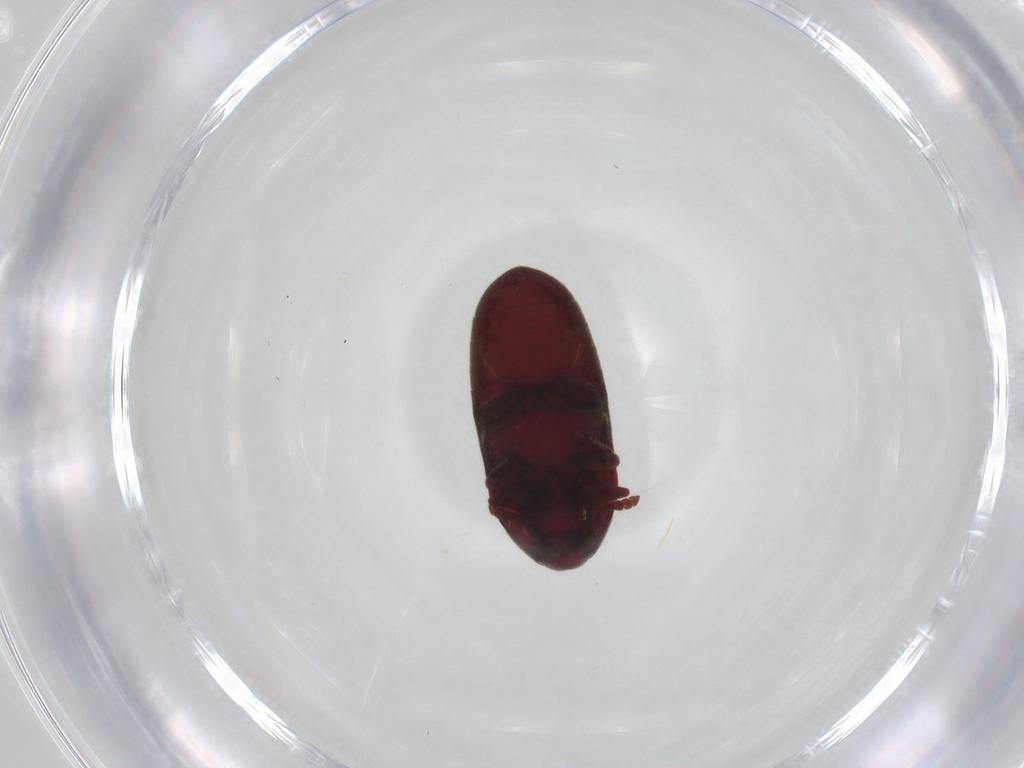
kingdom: Animalia
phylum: Arthropoda
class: Insecta
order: Coleoptera
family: Throscidae
